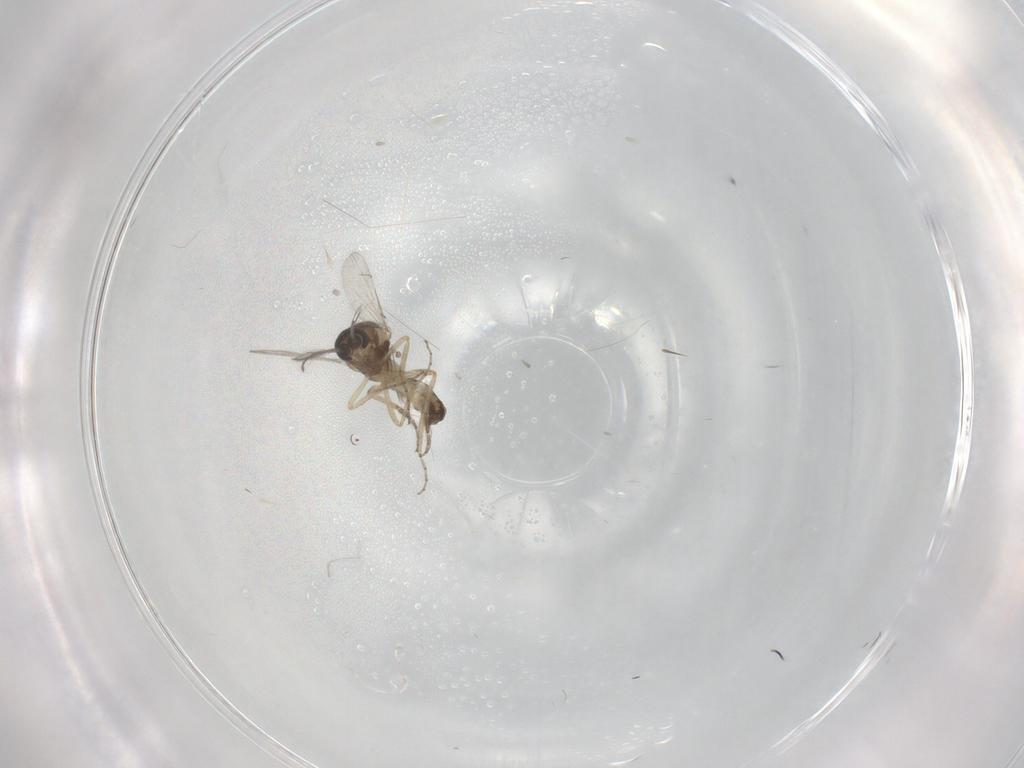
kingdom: Animalia
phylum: Arthropoda
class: Insecta
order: Diptera
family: Ceratopogonidae
